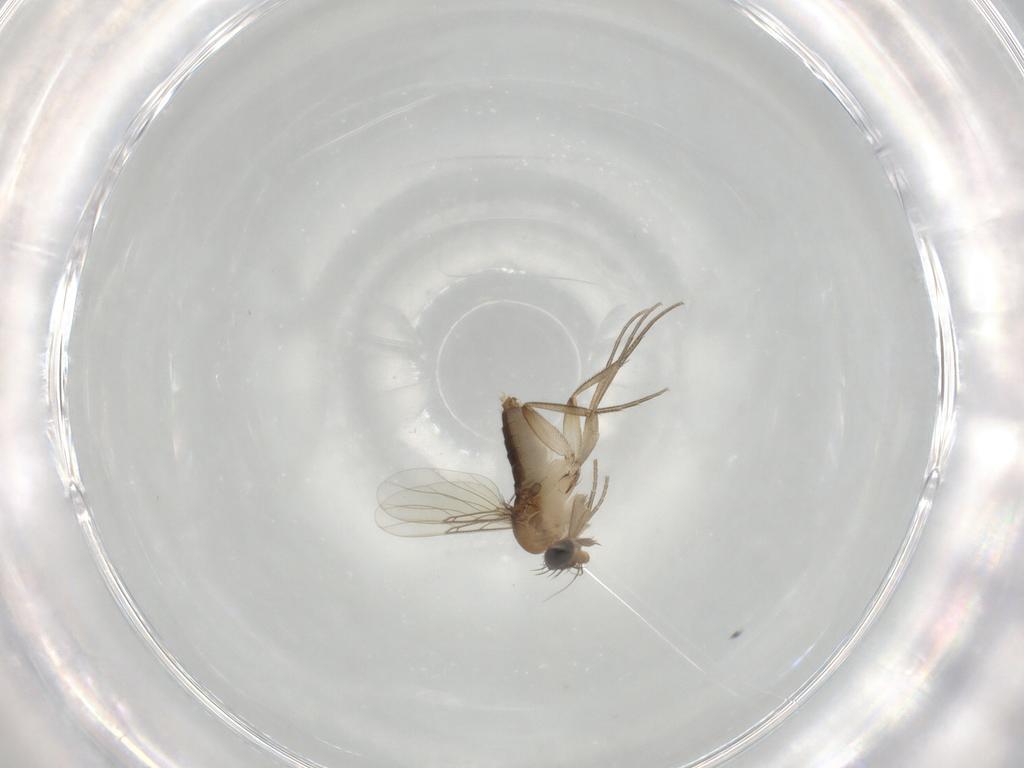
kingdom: Animalia
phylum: Arthropoda
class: Insecta
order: Diptera
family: Phoridae
